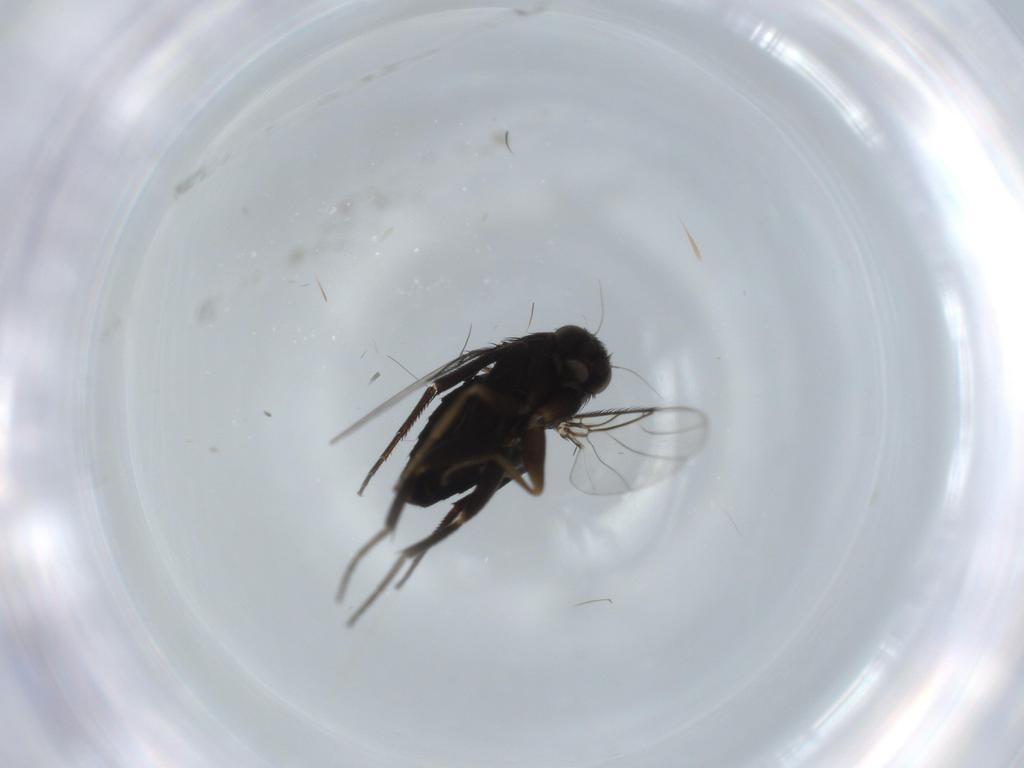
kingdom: Animalia
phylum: Arthropoda
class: Insecta
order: Diptera
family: Phoridae
